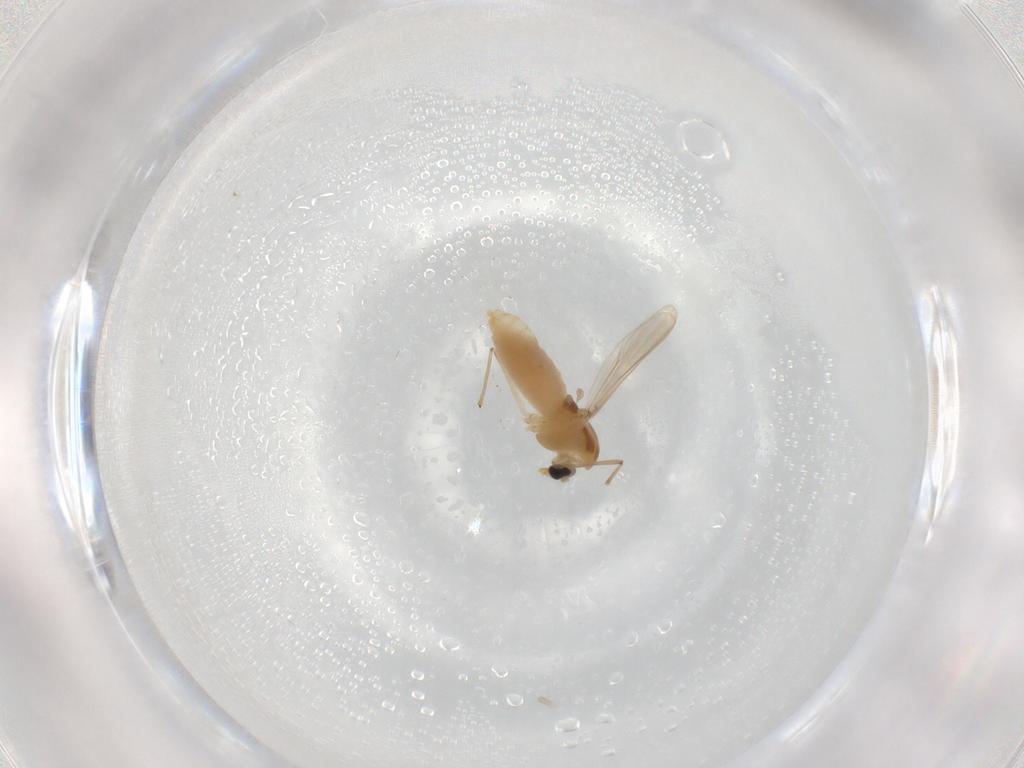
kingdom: Animalia
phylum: Arthropoda
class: Insecta
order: Diptera
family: Chironomidae
